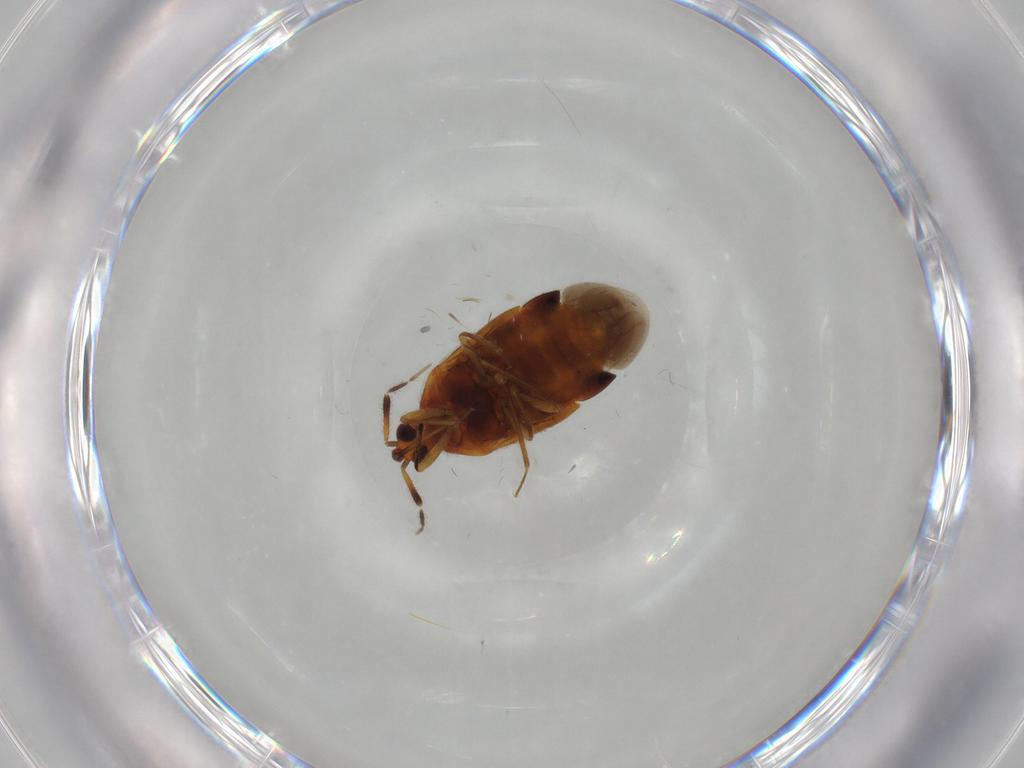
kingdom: Animalia
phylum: Arthropoda
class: Insecta
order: Hemiptera
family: Anthocoridae
